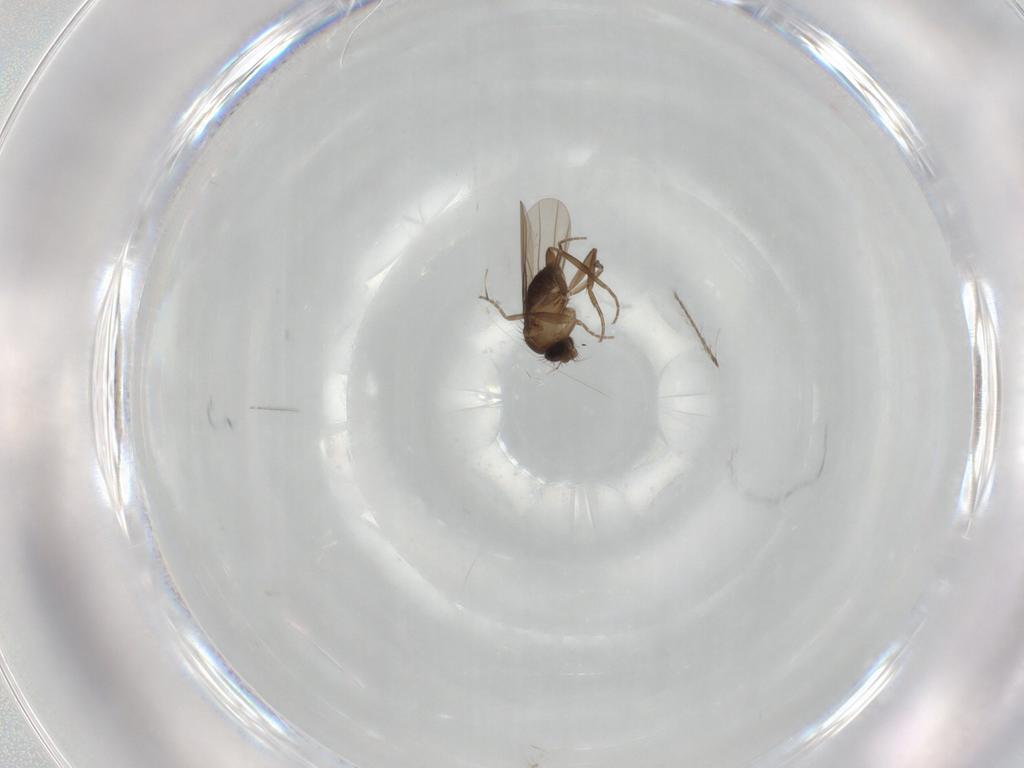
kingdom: Animalia
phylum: Arthropoda
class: Insecta
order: Diptera
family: Phoridae
